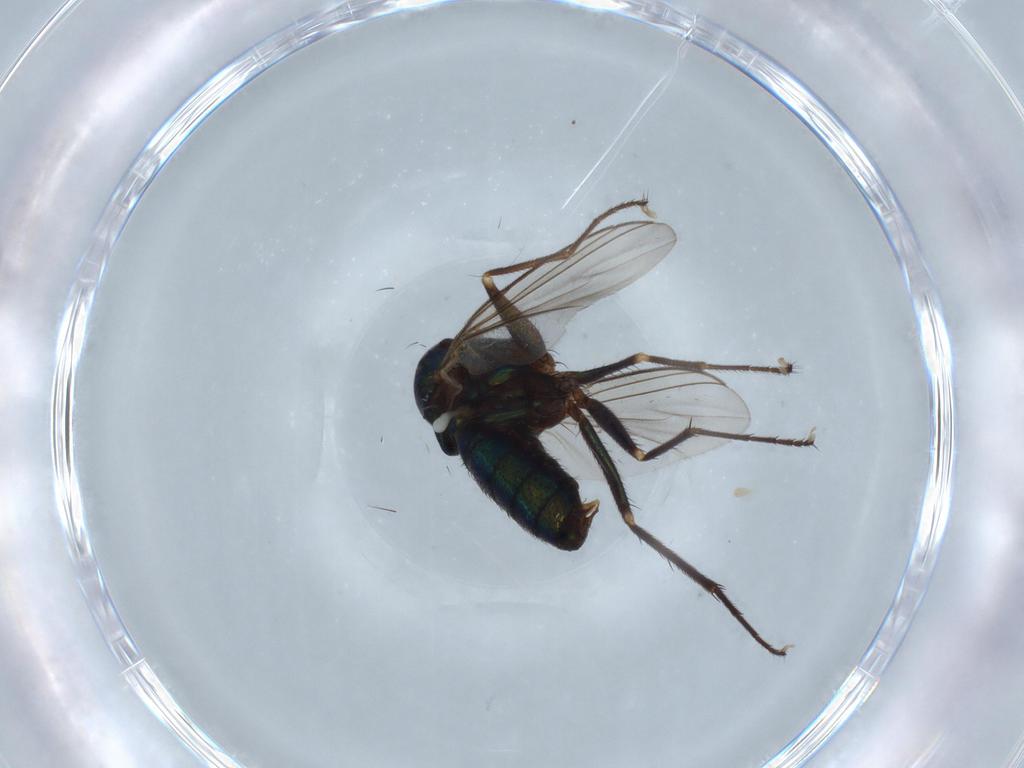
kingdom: Animalia
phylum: Arthropoda
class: Insecta
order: Diptera
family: Dolichopodidae
